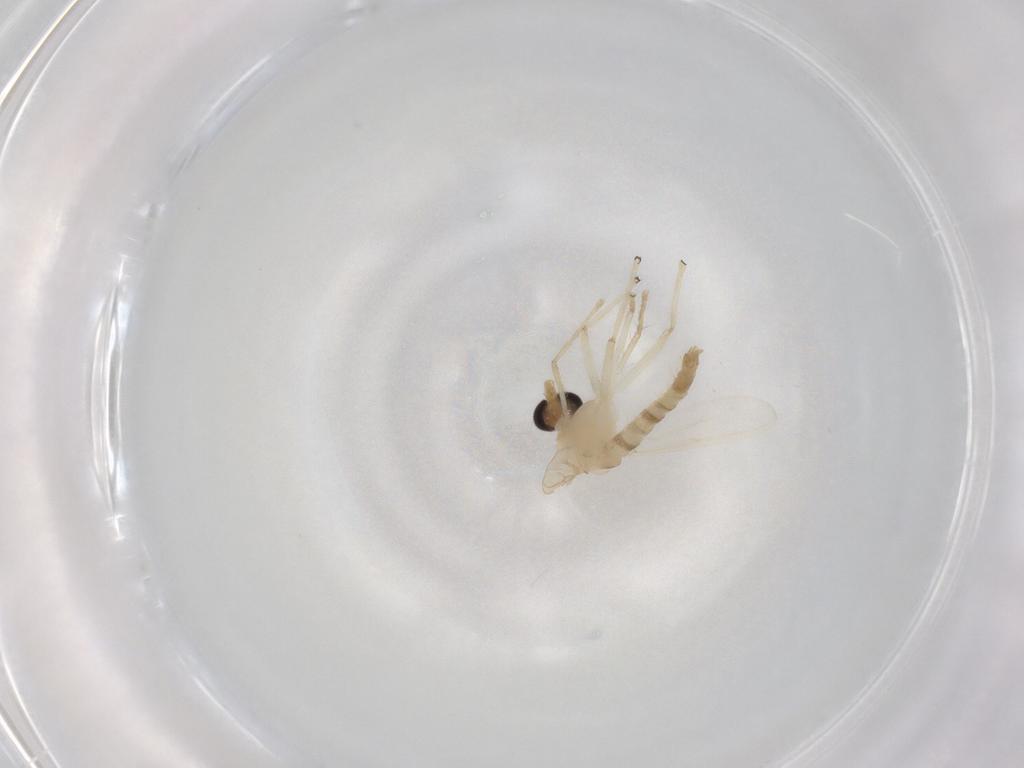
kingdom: Animalia
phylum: Arthropoda
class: Insecta
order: Diptera
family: Chironomidae
